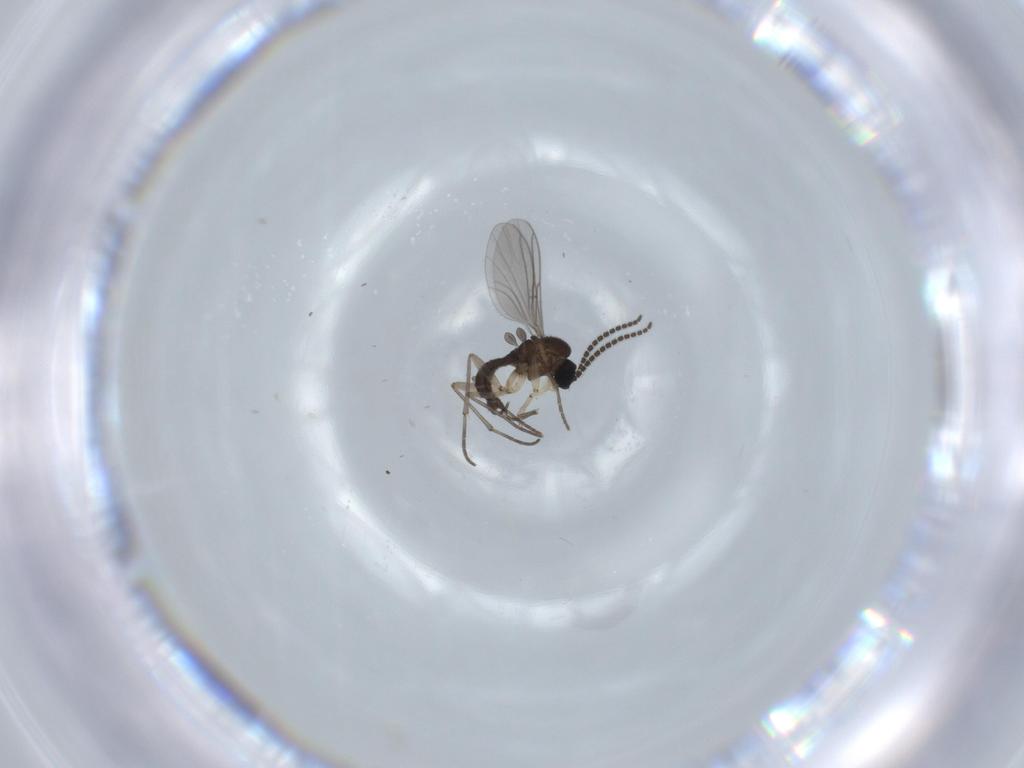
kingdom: Animalia
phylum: Arthropoda
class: Insecta
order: Diptera
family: Sciaridae
